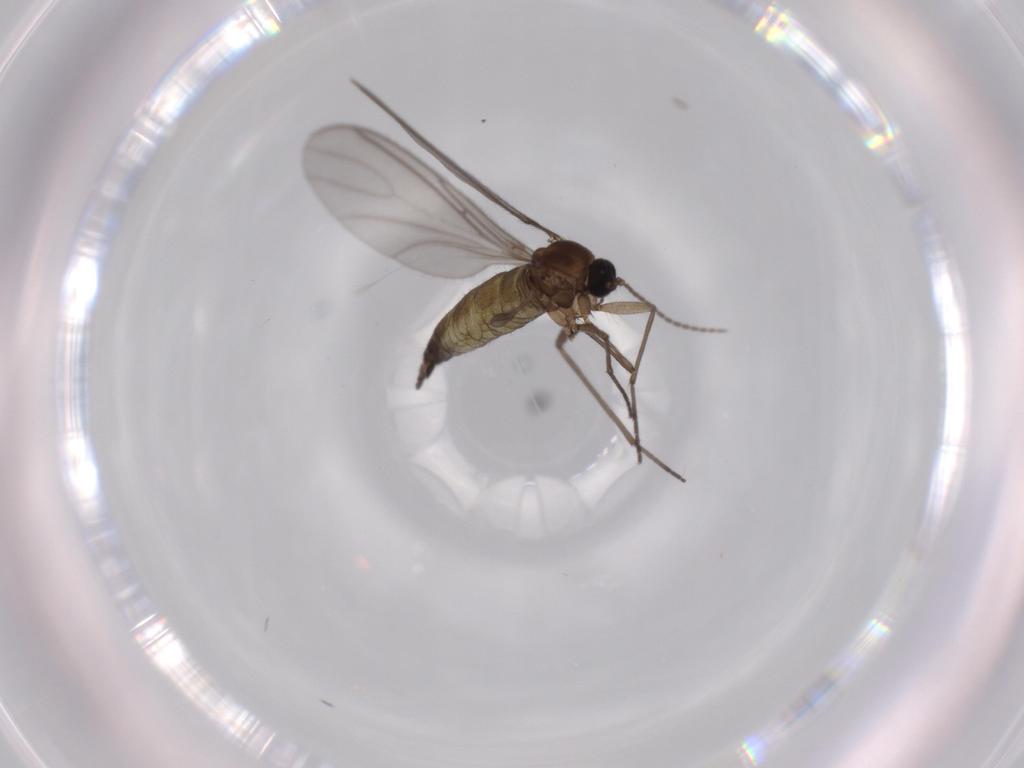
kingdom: Animalia
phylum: Arthropoda
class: Insecta
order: Diptera
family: Sciaridae
